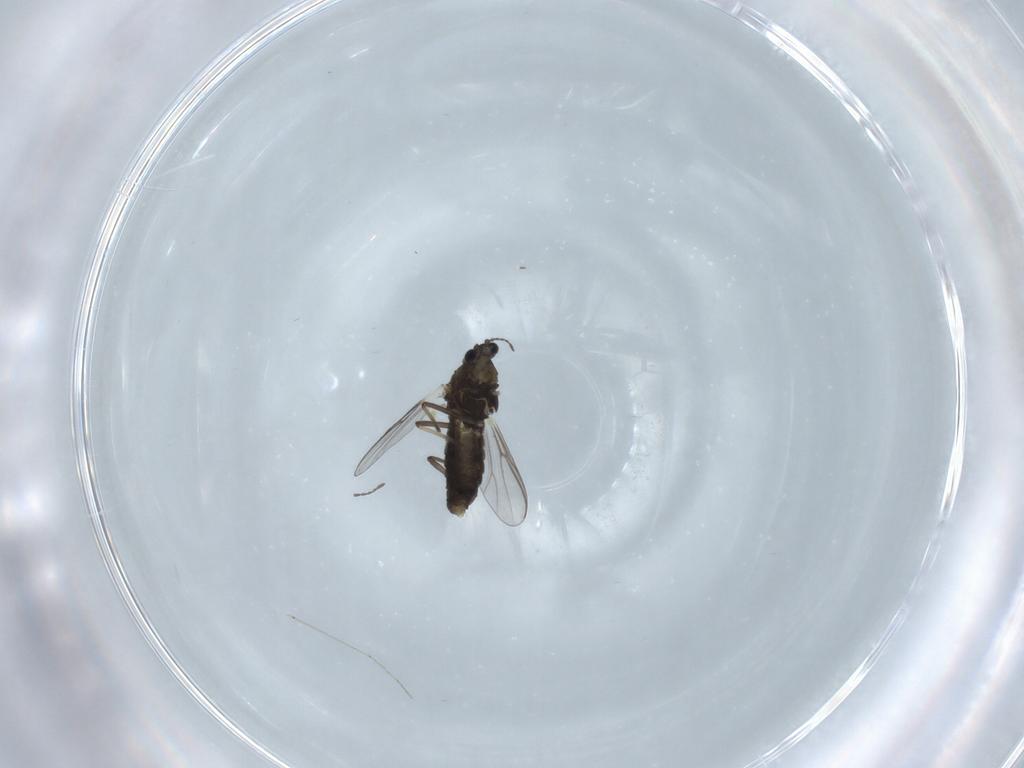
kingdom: Animalia
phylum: Arthropoda
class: Insecta
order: Diptera
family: Chironomidae
